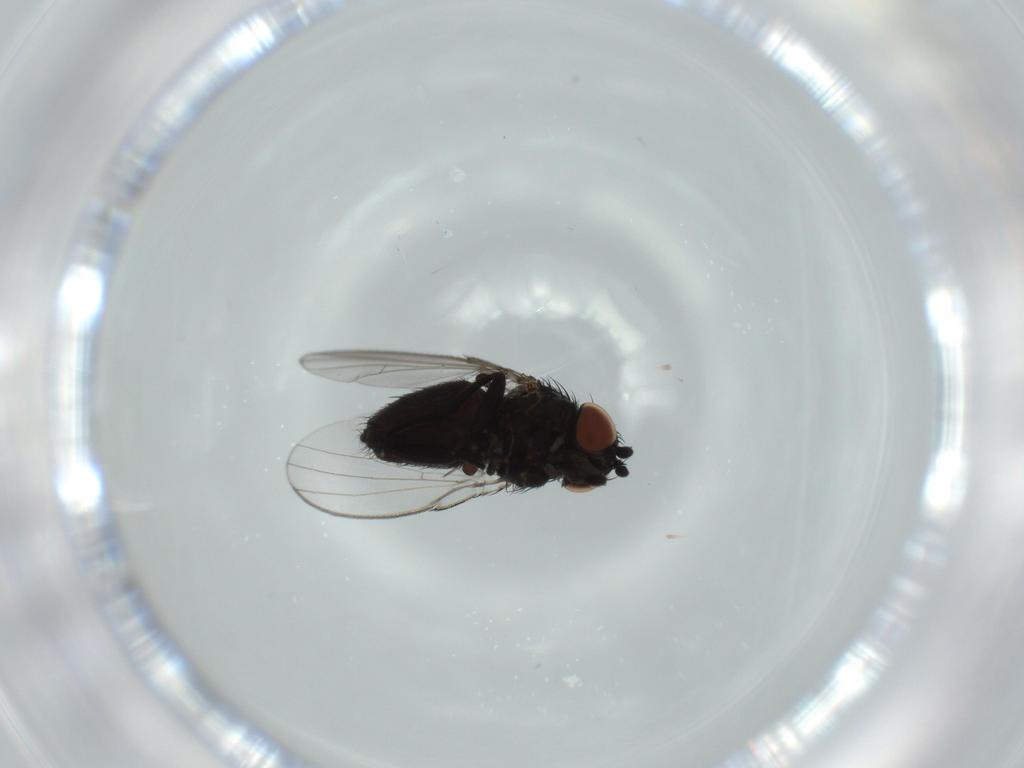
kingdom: Animalia
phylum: Arthropoda
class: Insecta
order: Diptera
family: Milichiidae
